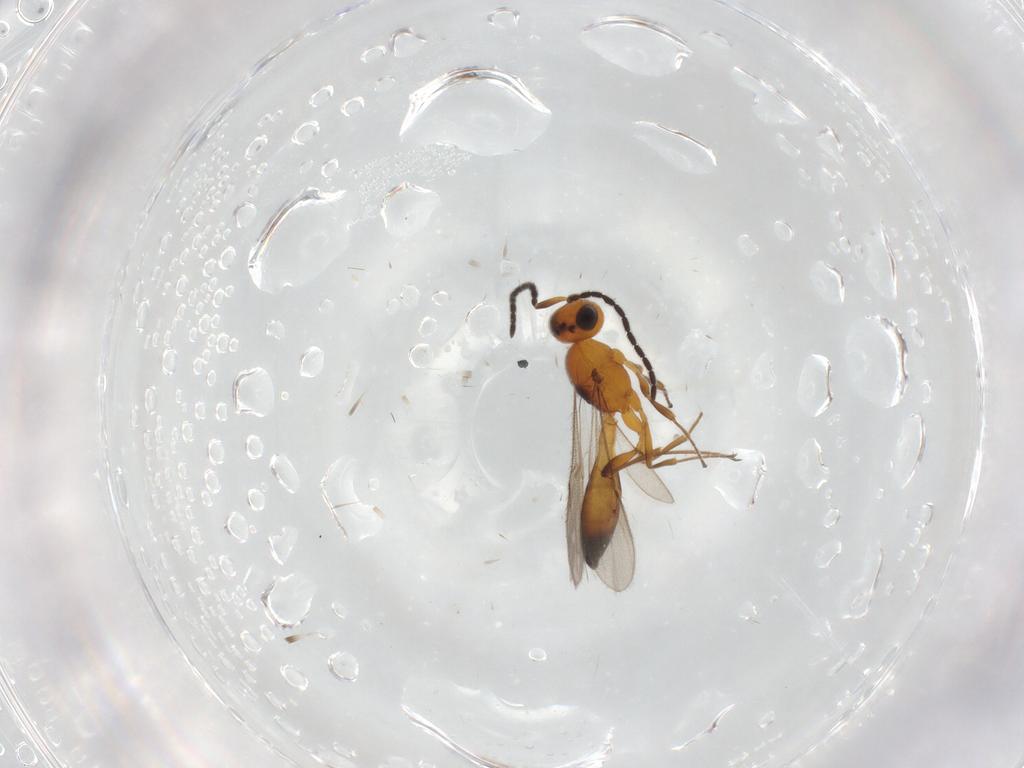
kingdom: Animalia
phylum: Arthropoda
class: Insecta
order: Hymenoptera
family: Scelionidae
